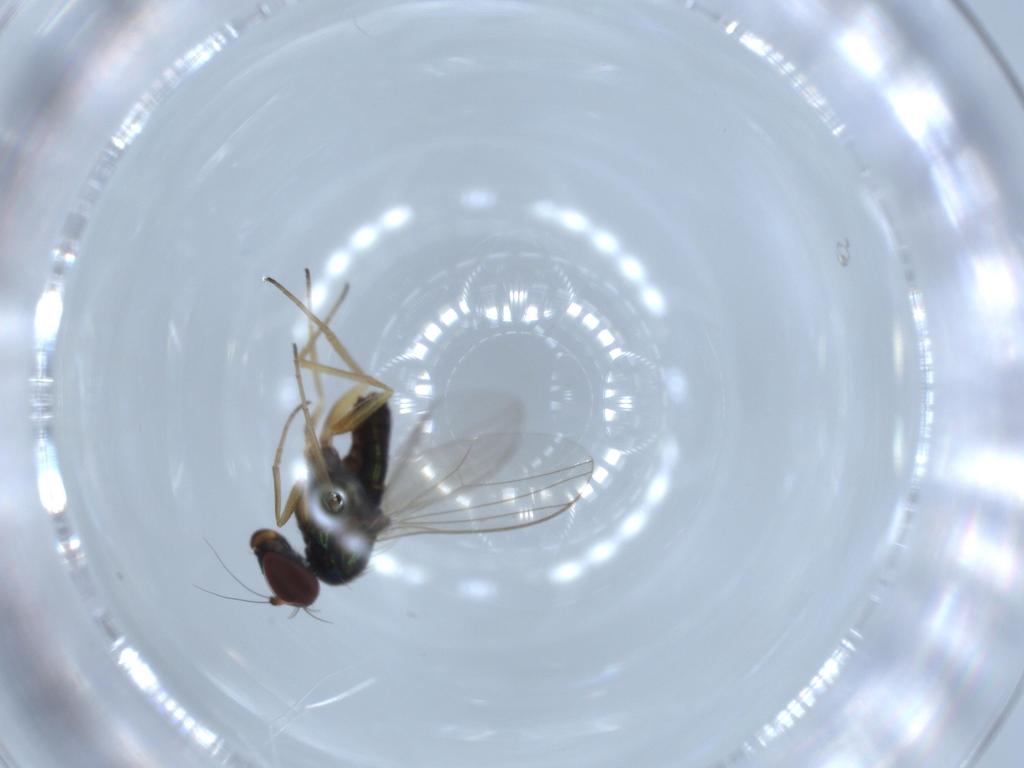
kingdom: Animalia
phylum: Arthropoda
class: Insecta
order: Diptera
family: Dolichopodidae
